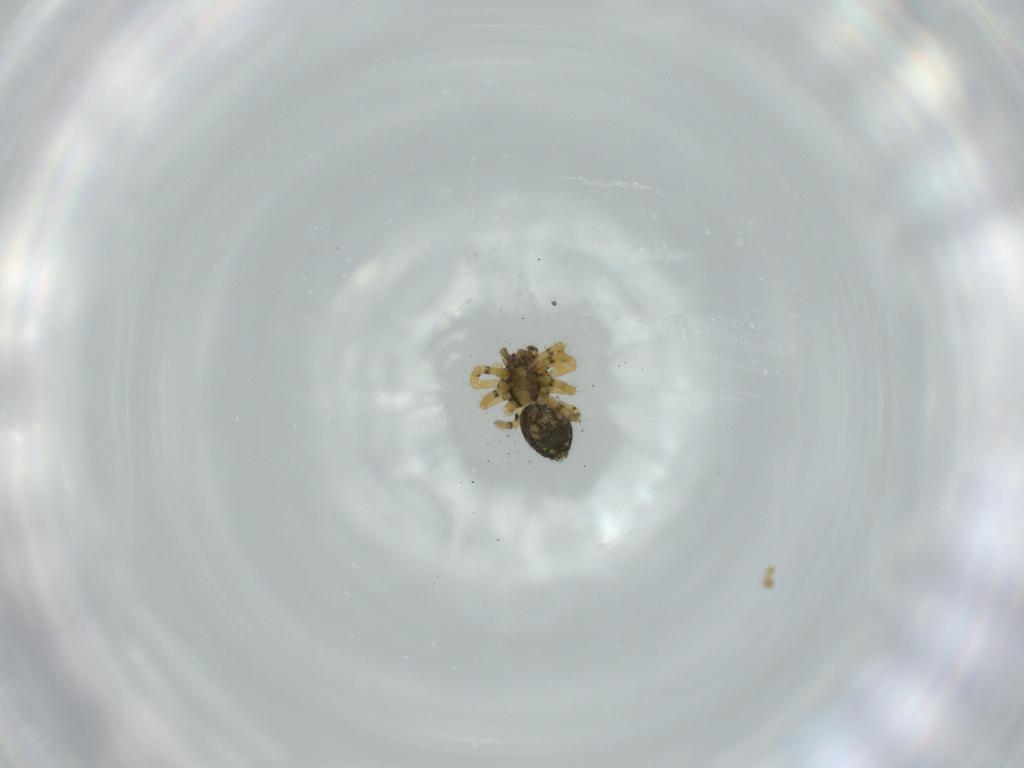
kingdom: Animalia
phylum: Arthropoda
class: Arachnida
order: Araneae
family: Theridiidae
